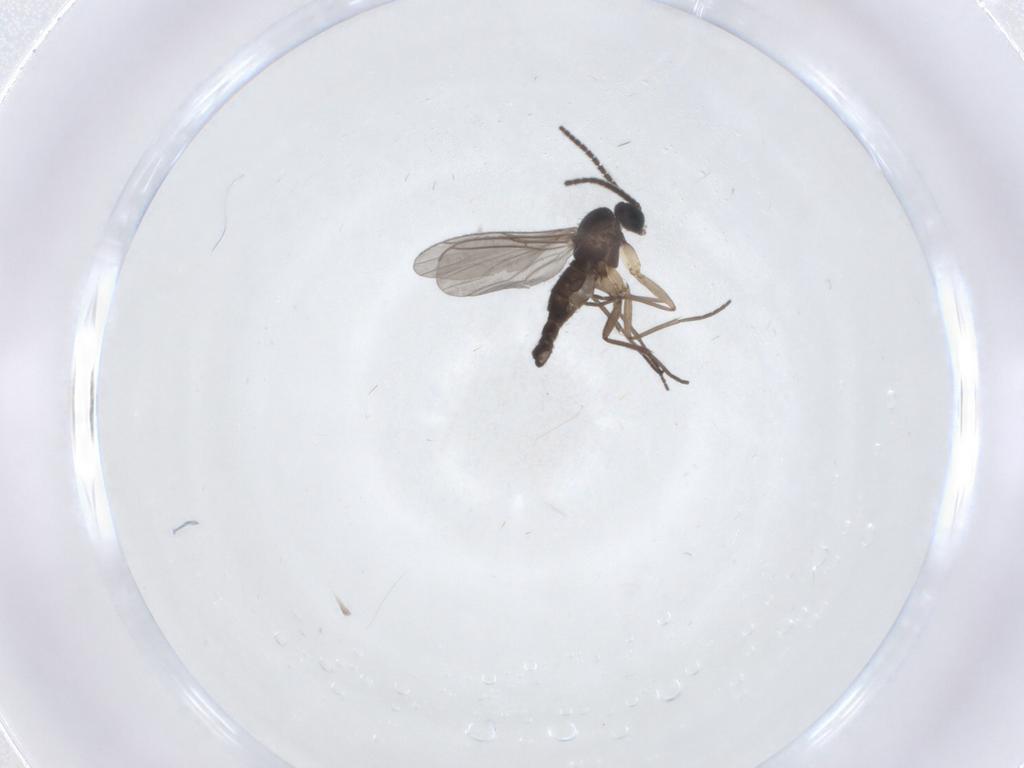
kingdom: Animalia
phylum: Arthropoda
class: Insecta
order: Diptera
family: Sciaridae
